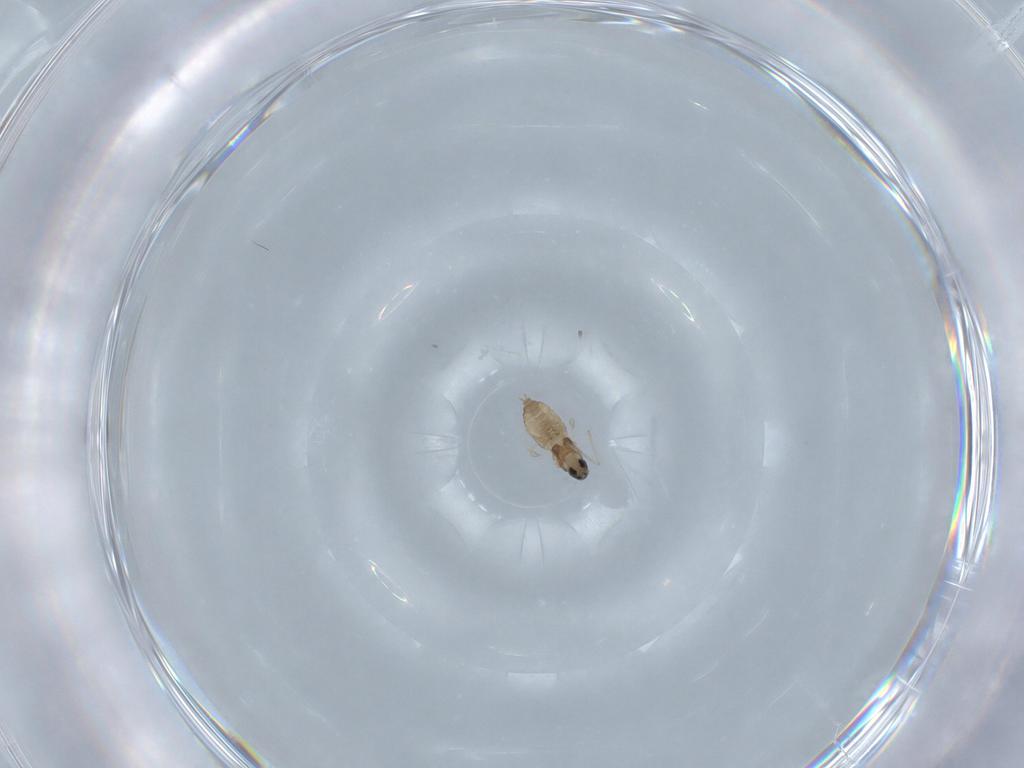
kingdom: Animalia
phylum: Arthropoda
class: Insecta
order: Diptera
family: Cecidomyiidae
